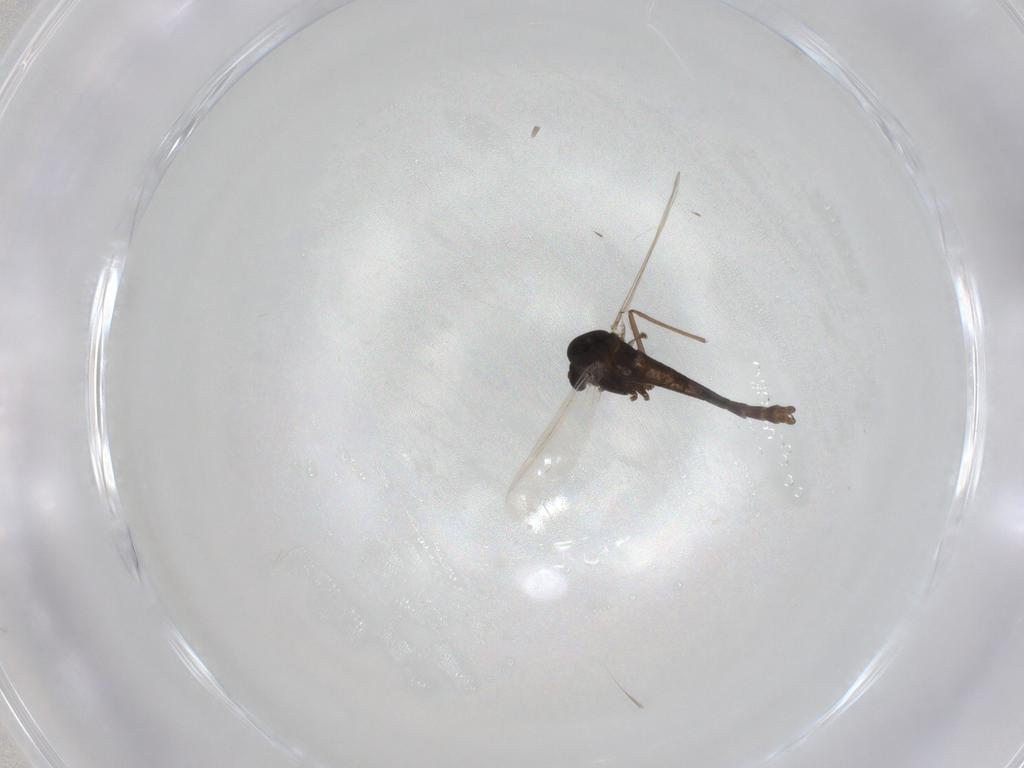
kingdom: Animalia
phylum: Arthropoda
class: Insecta
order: Diptera
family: Chironomidae
